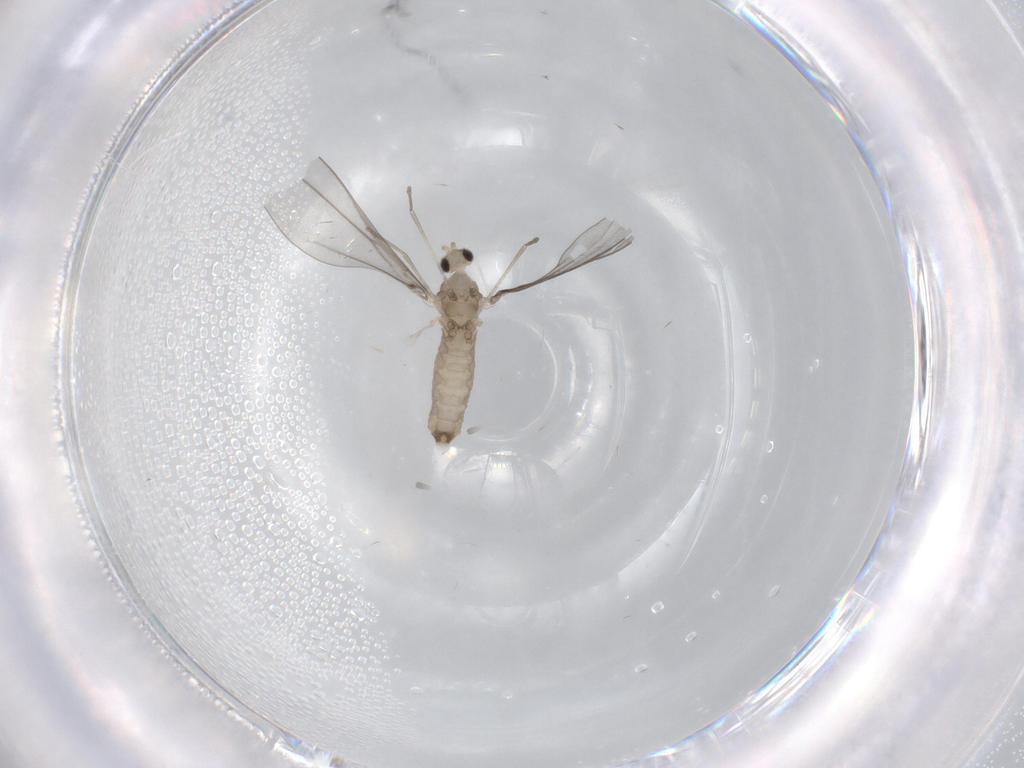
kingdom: Animalia
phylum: Arthropoda
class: Insecta
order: Diptera
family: Cecidomyiidae
